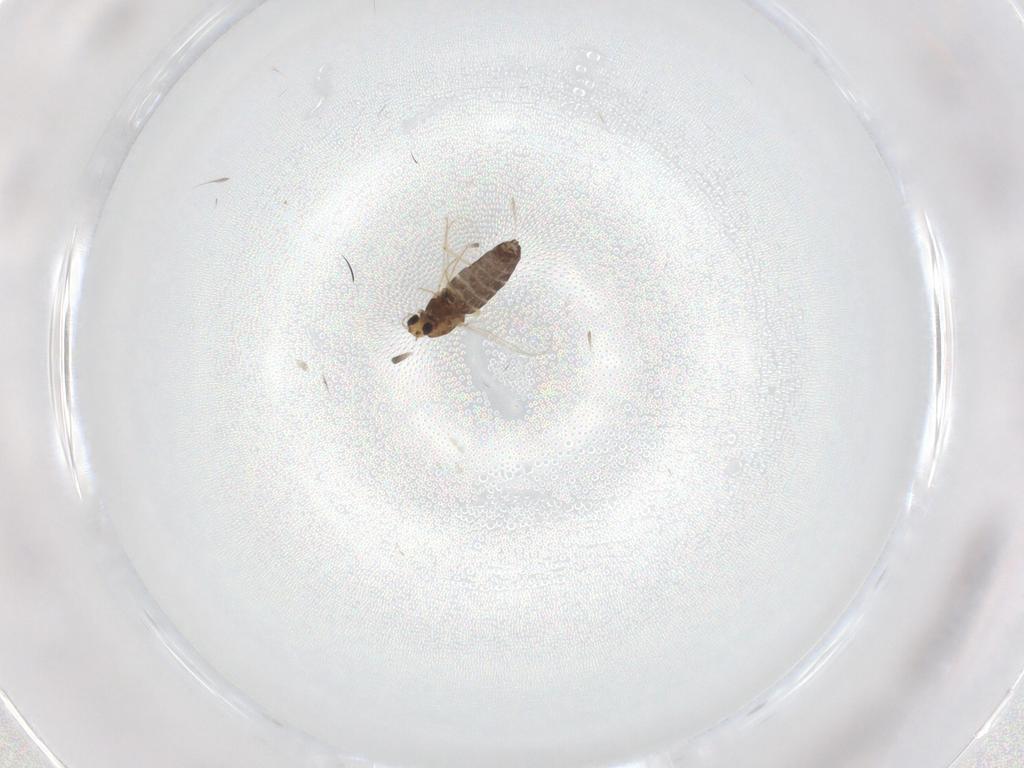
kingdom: Animalia
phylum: Arthropoda
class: Insecta
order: Diptera
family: Chironomidae
